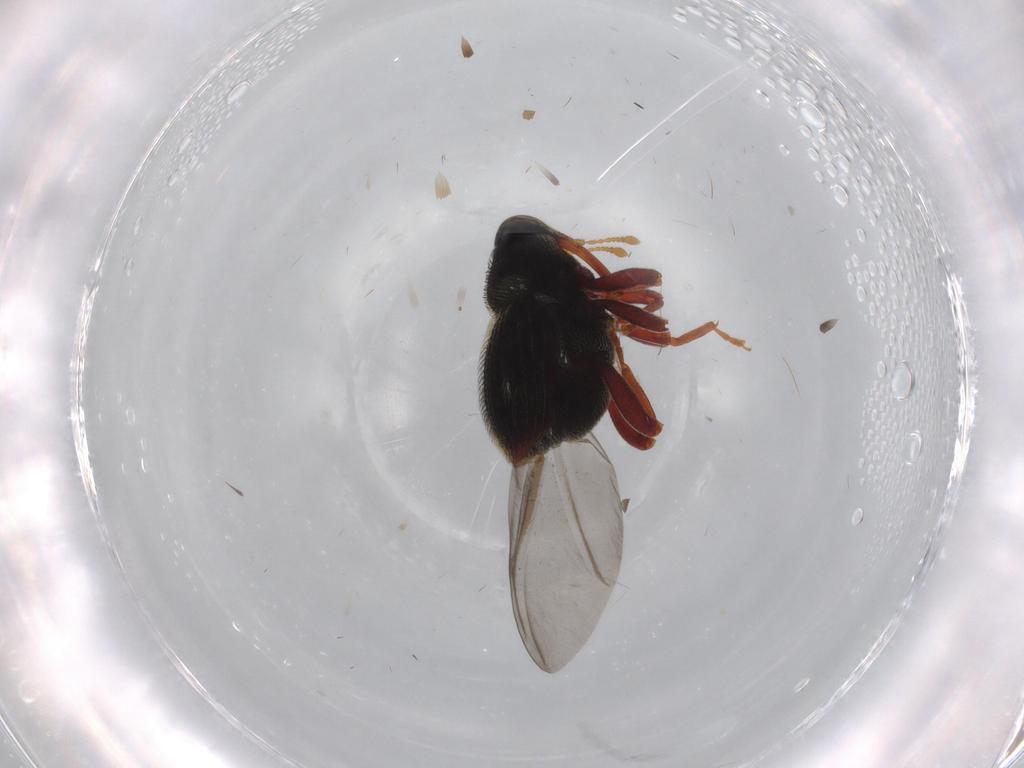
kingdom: Animalia
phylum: Arthropoda
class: Insecta
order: Coleoptera
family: Curculionidae
